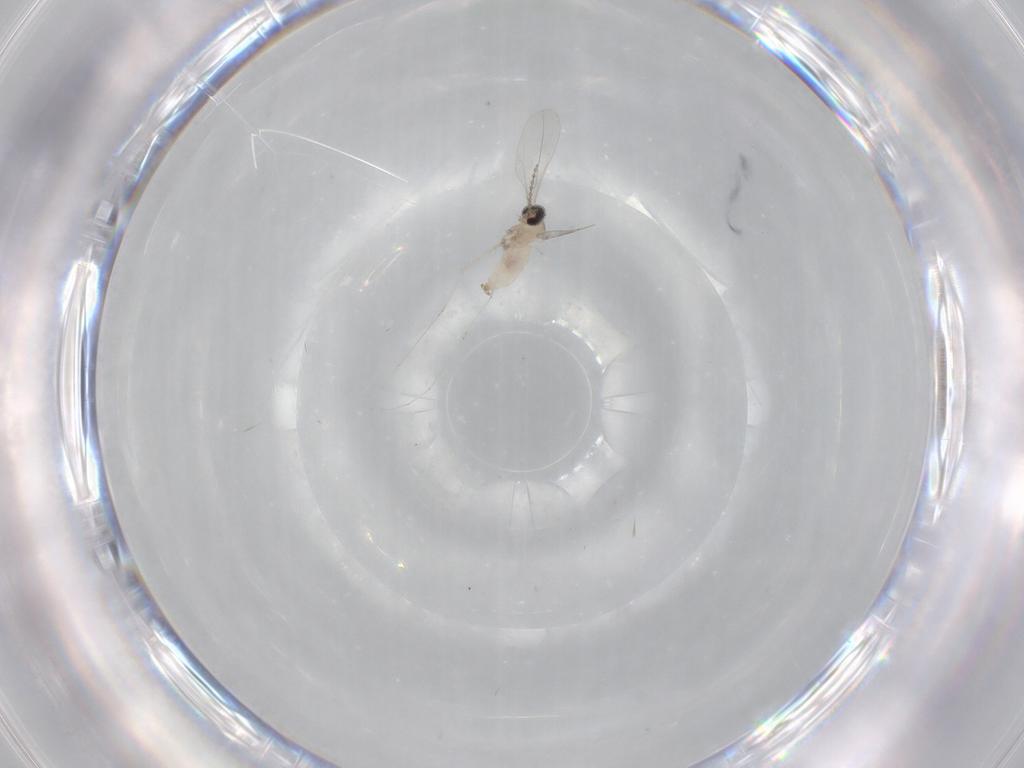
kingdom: Animalia
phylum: Arthropoda
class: Insecta
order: Diptera
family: Cecidomyiidae
